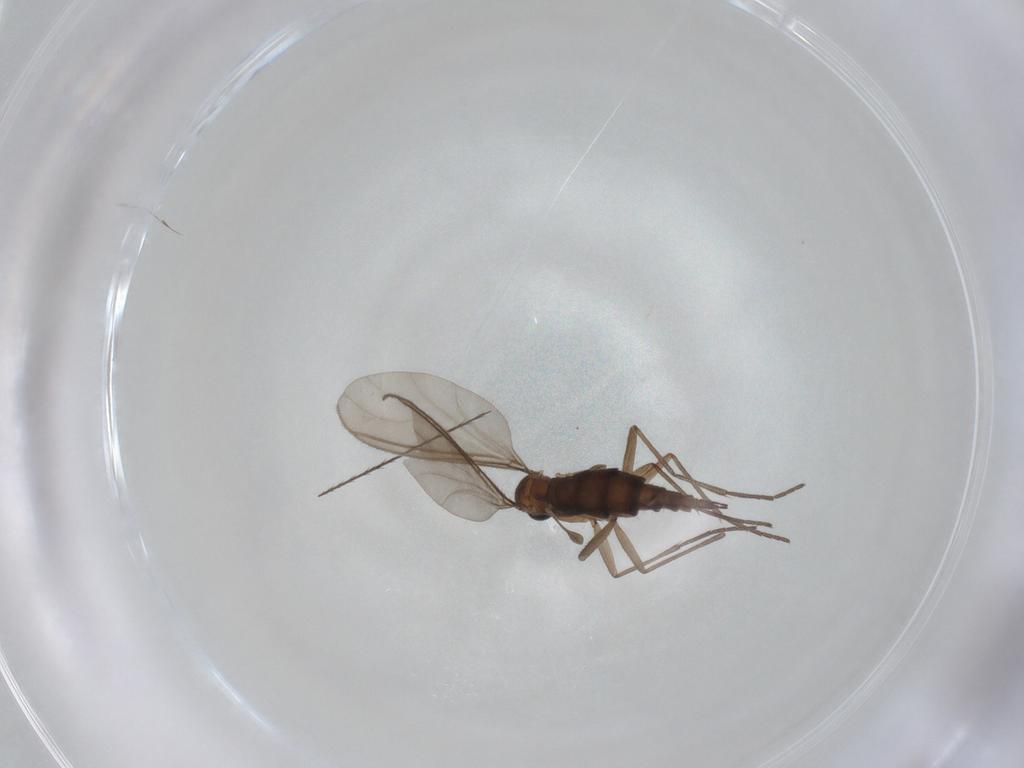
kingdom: Animalia
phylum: Arthropoda
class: Insecta
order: Diptera
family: Sciaridae
